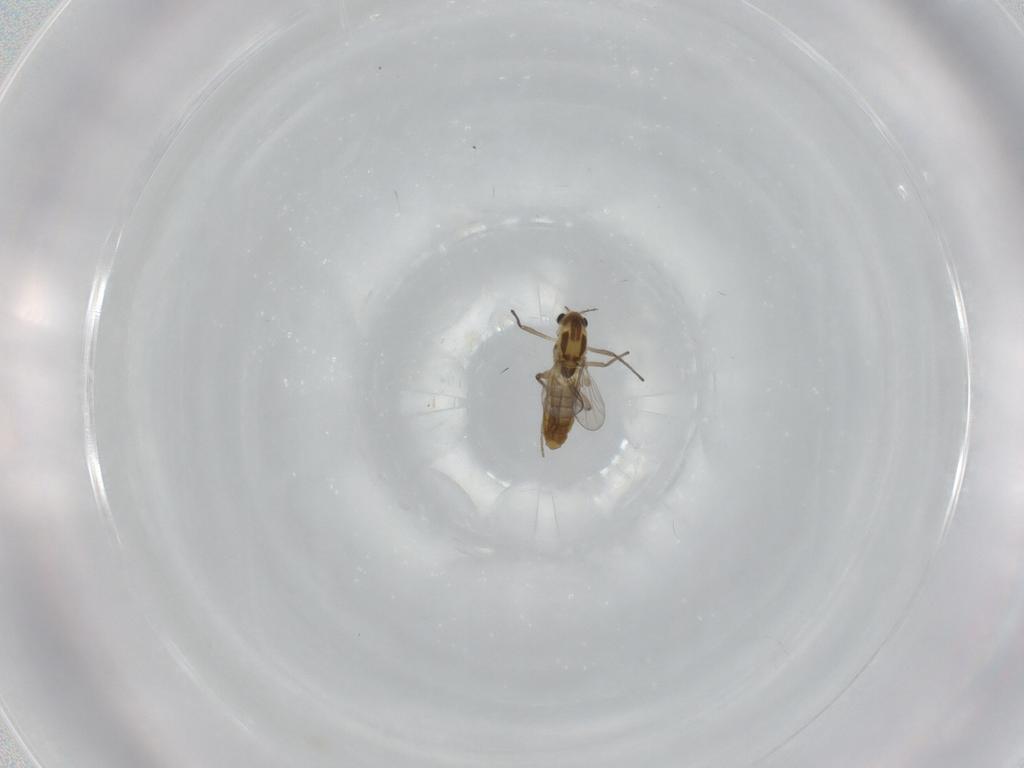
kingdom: Animalia
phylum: Arthropoda
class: Insecta
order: Diptera
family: Chironomidae
